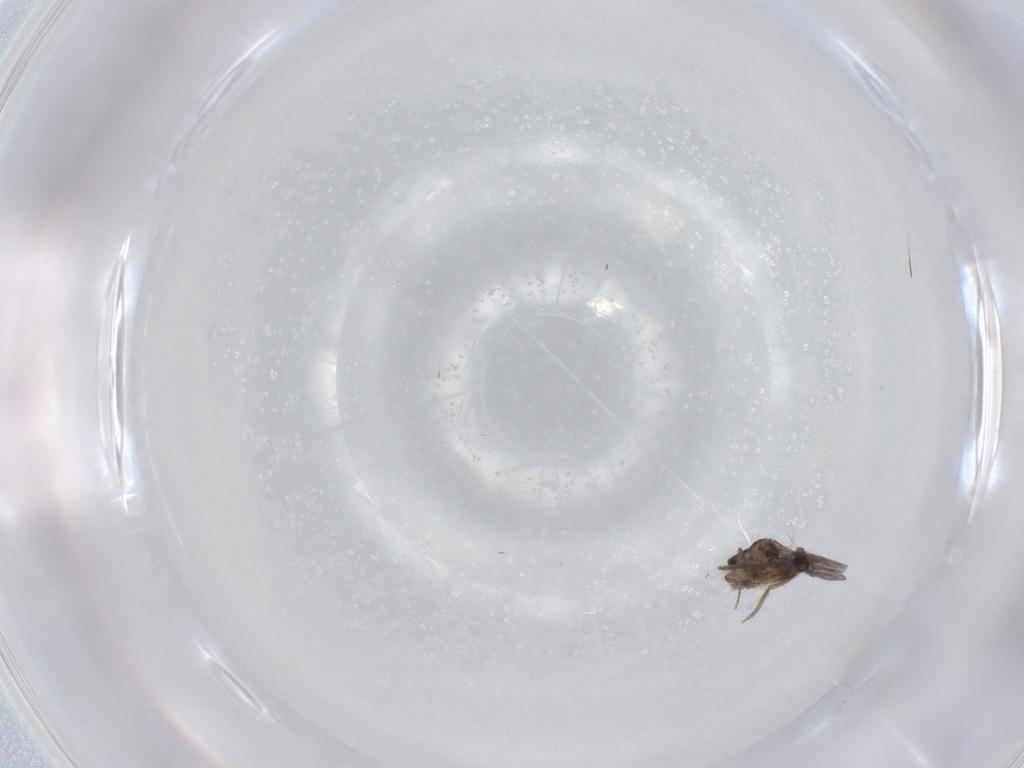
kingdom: Animalia
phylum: Arthropoda
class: Insecta
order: Diptera
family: Limoniidae
